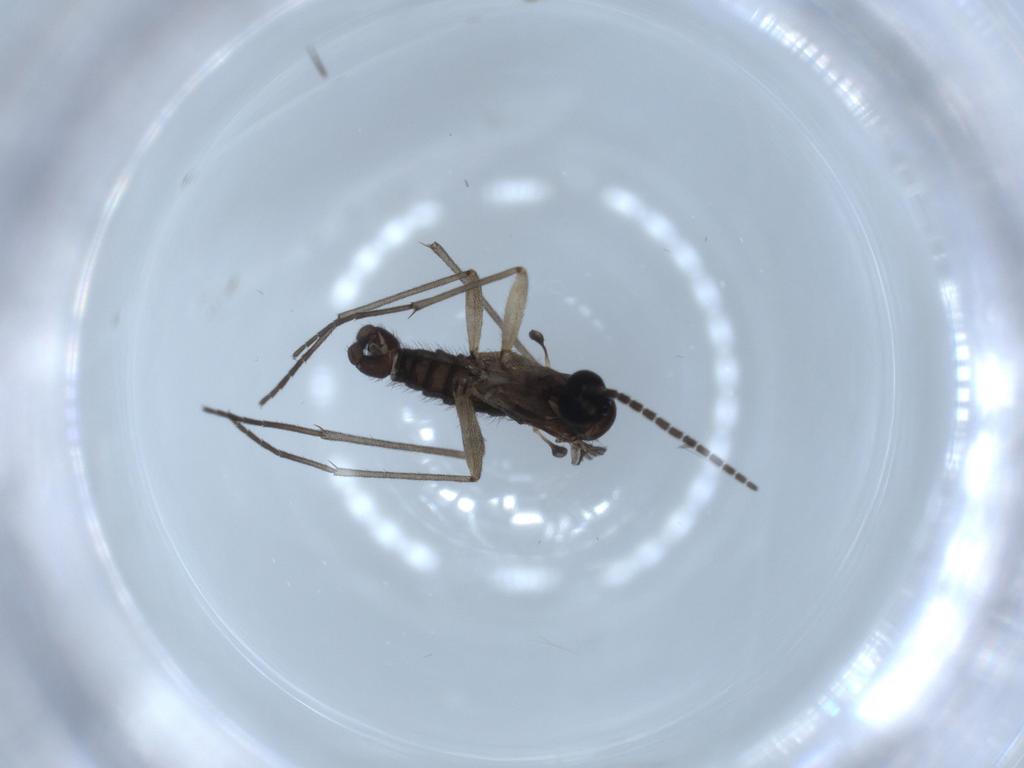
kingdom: Animalia
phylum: Arthropoda
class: Insecta
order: Diptera
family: Sciaridae
